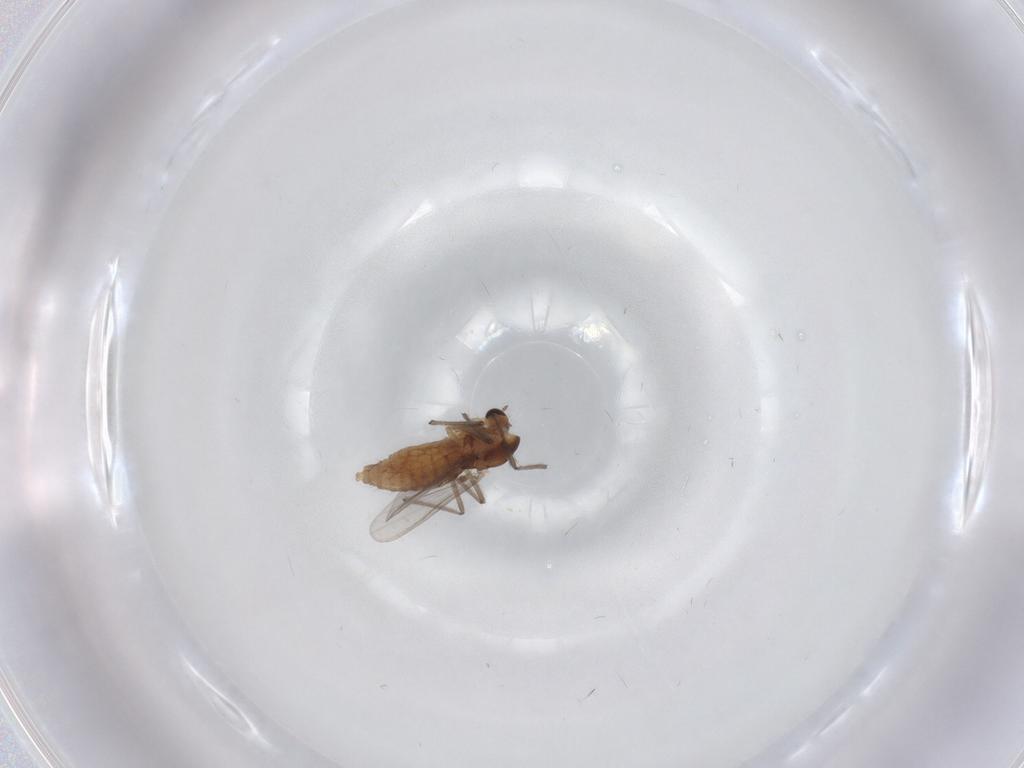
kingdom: Animalia
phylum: Arthropoda
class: Insecta
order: Diptera
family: Chironomidae
